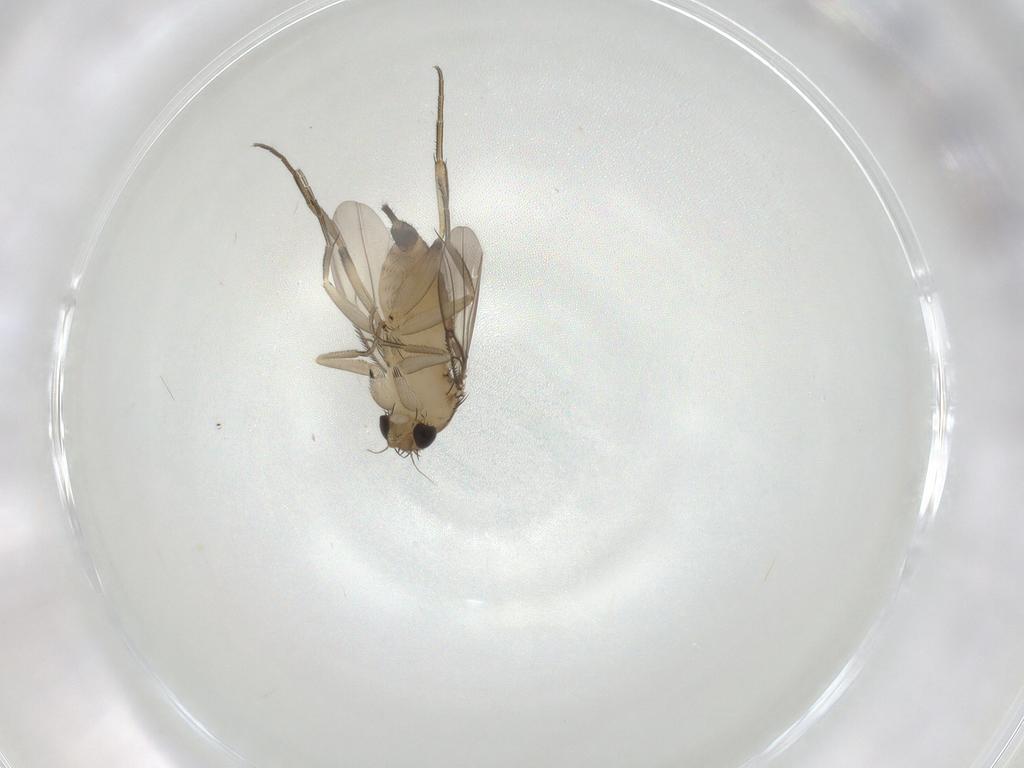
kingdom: Animalia
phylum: Arthropoda
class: Insecta
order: Diptera
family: Phoridae
